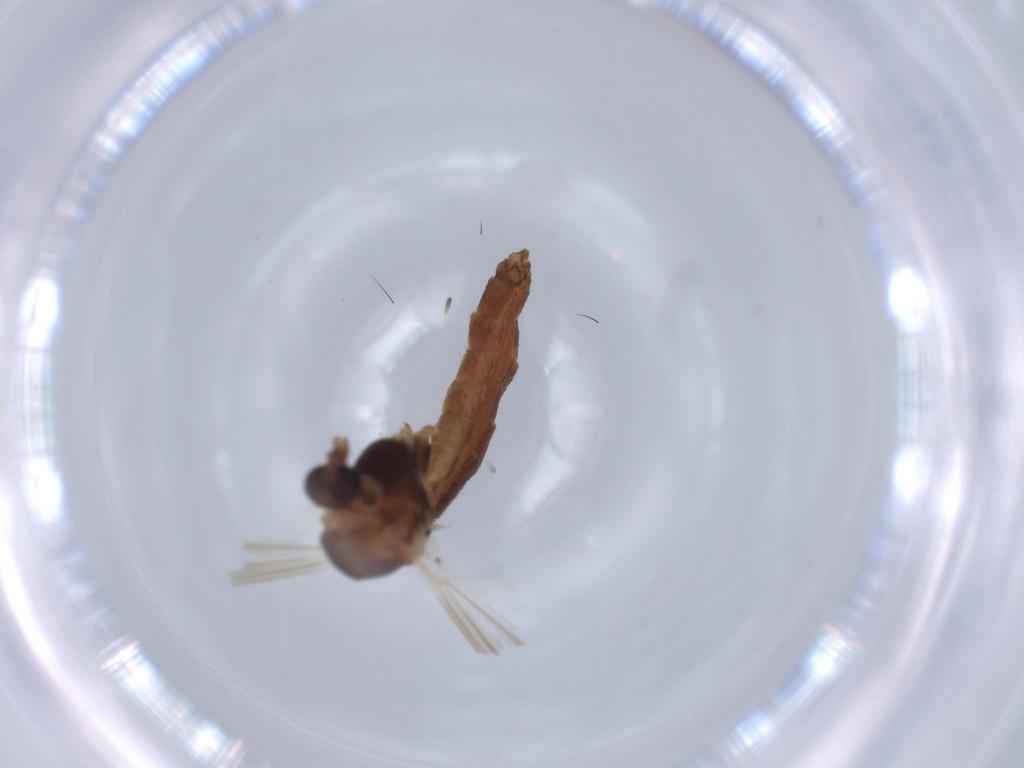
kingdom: Animalia
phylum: Arthropoda
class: Insecta
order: Diptera
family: Chironomidae
